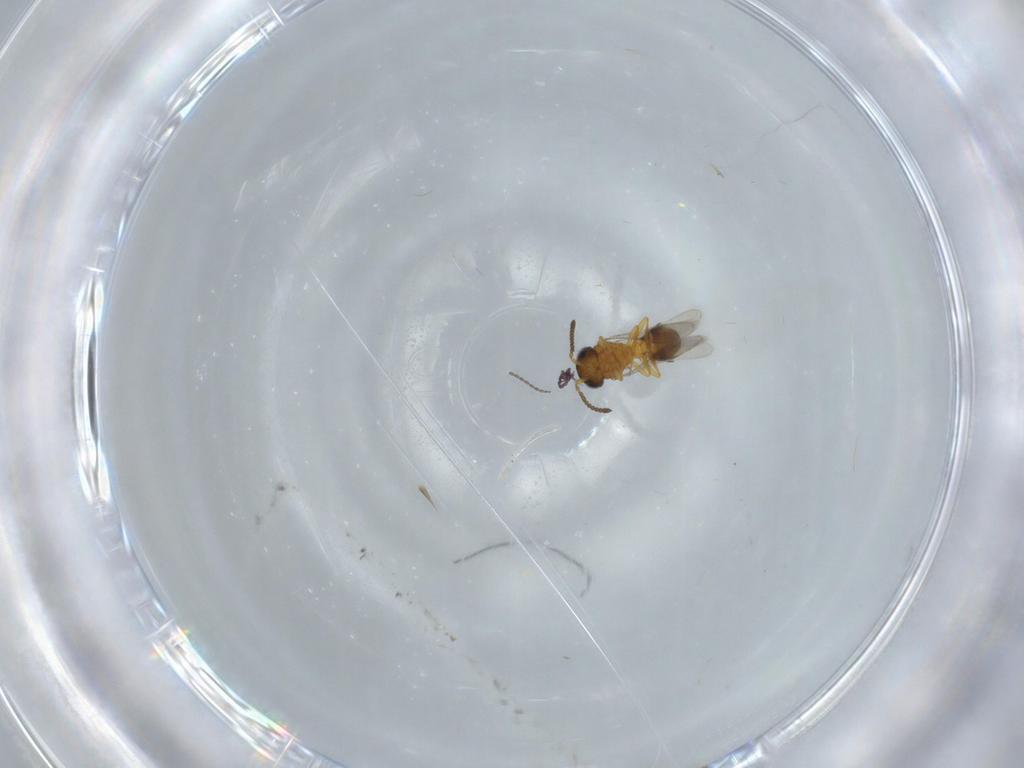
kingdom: Animalia
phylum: Arthropoda
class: Insecta
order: Hymenoptera
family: Scelionidae
